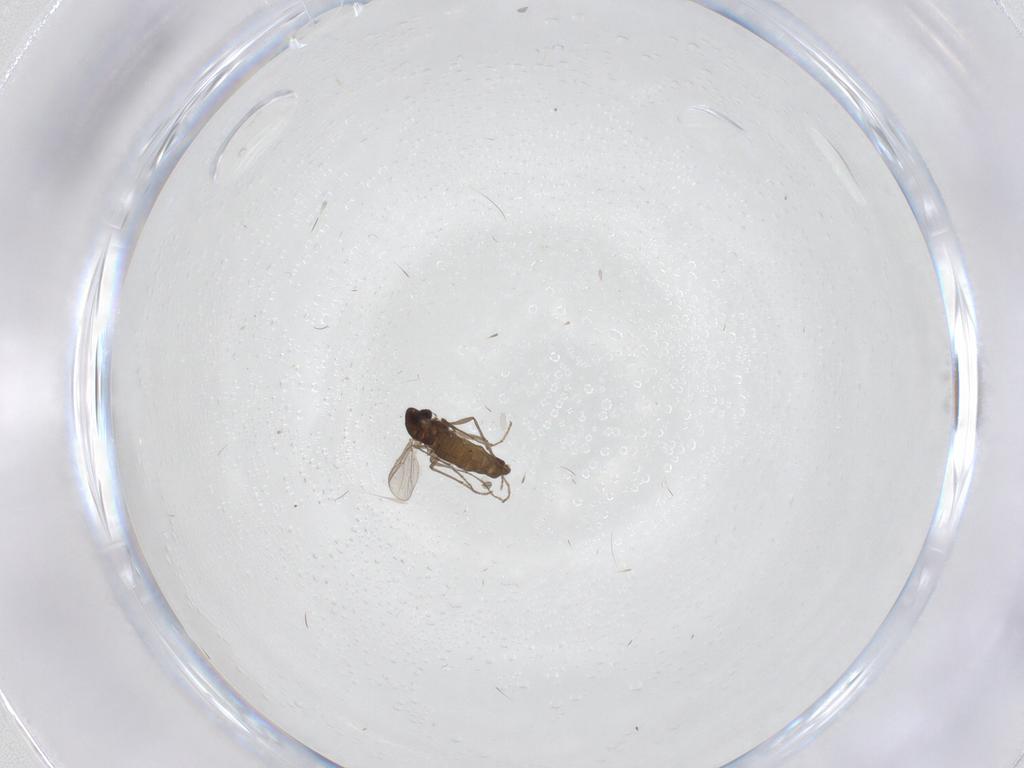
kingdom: Animalia
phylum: Arthropoda
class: Insecta
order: Diptera
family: Chironomidae
